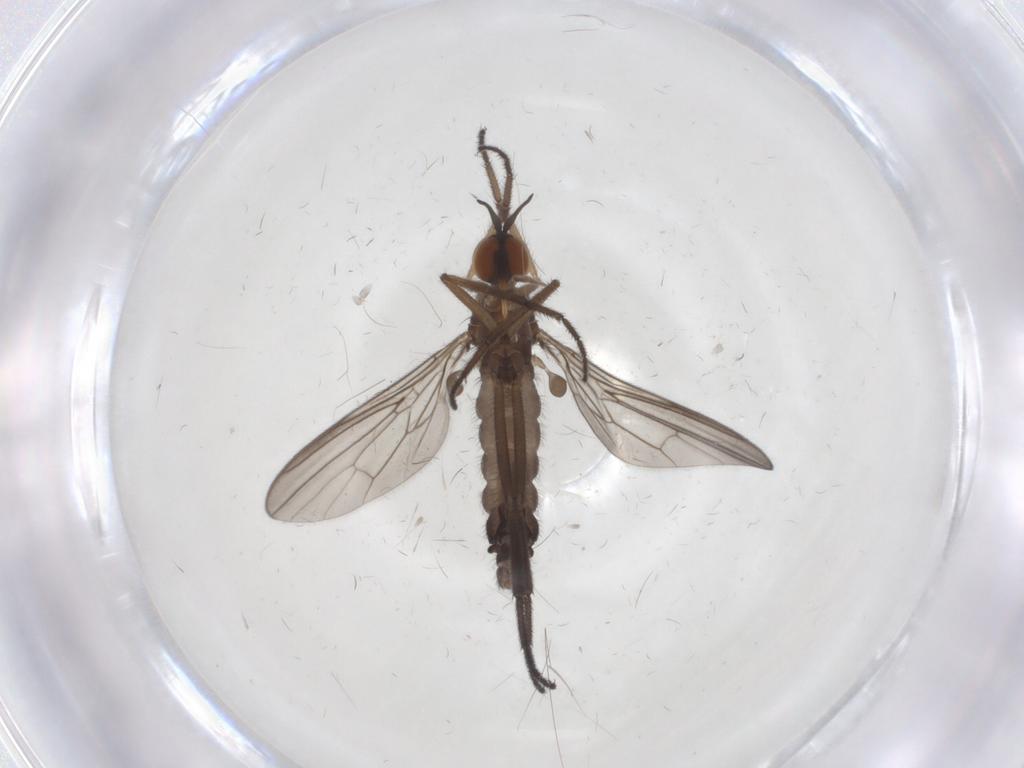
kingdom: Animalia
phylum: Arthropoda
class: Insecta
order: Diptera
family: Empididae
